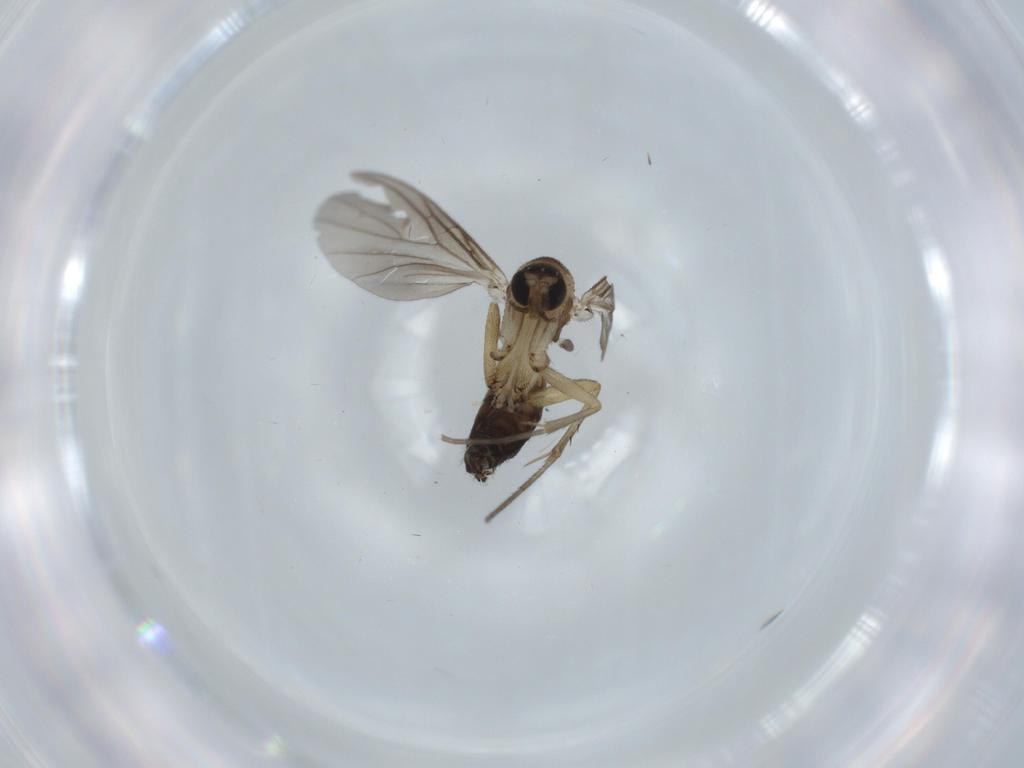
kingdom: Animalia
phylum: Arthropoda
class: Insecta
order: Diptera
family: Mycetophilidae
